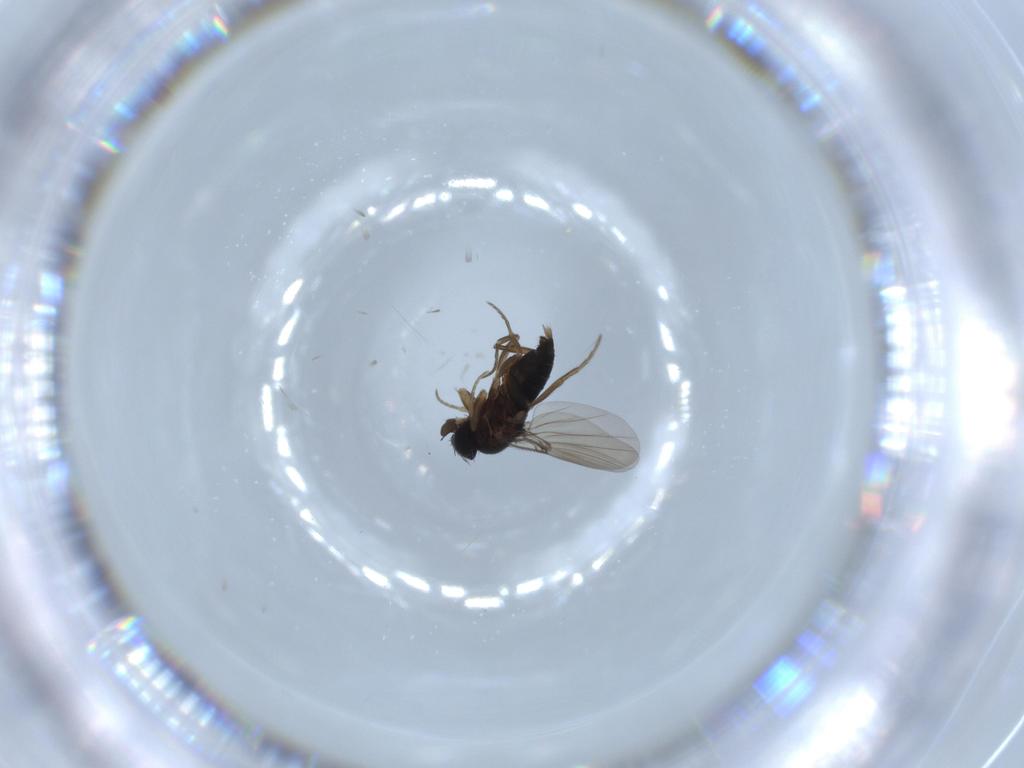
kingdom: Animalia
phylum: Arthropoda
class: Insecta
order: Diptera
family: Phoridae
